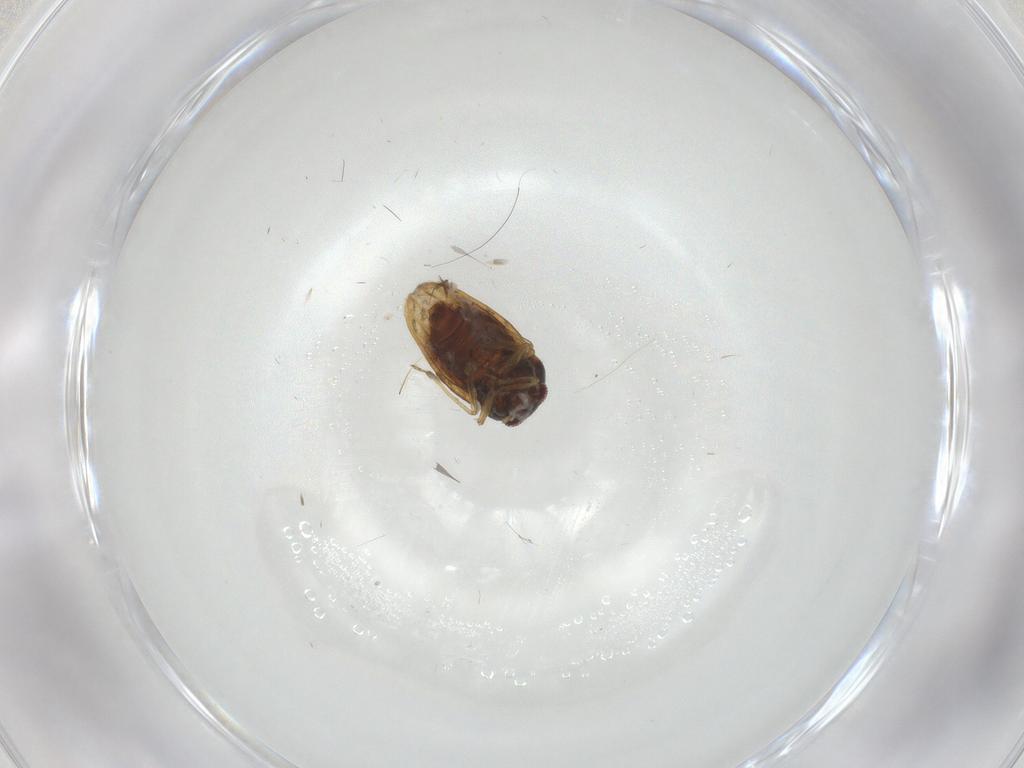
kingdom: Animalia
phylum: Arthropoda
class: Insecta
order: Hemiptera
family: Schizopteridae
